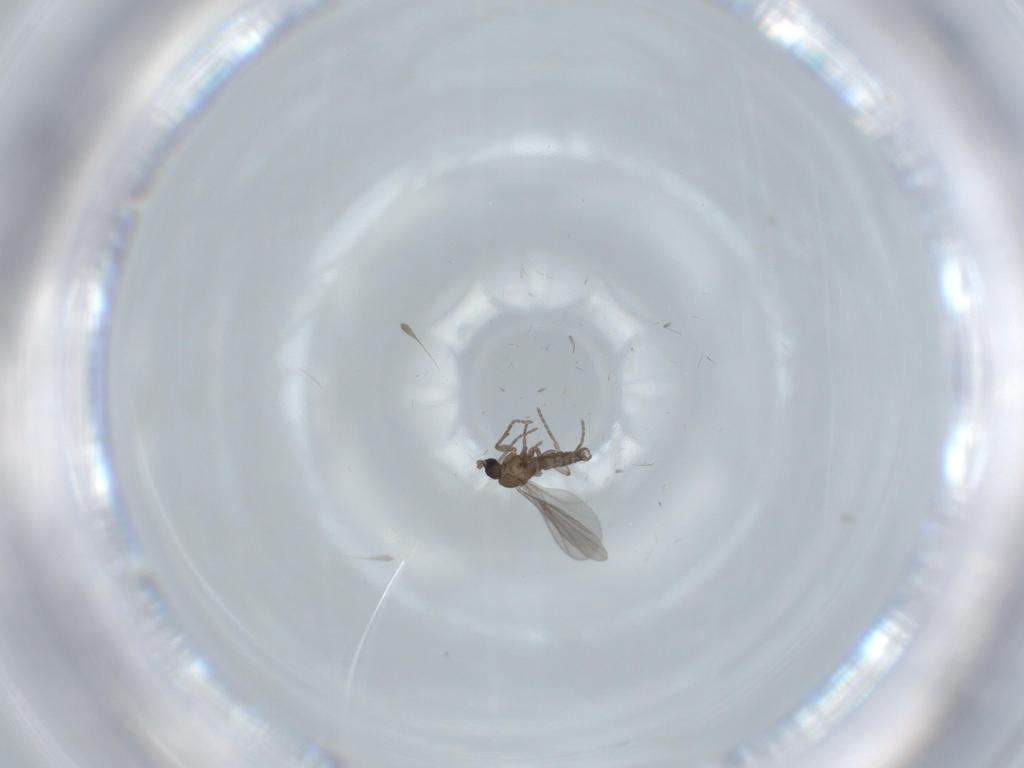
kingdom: Animalia
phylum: Arthropoda
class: Insecta
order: Diptera
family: Sciaridae
